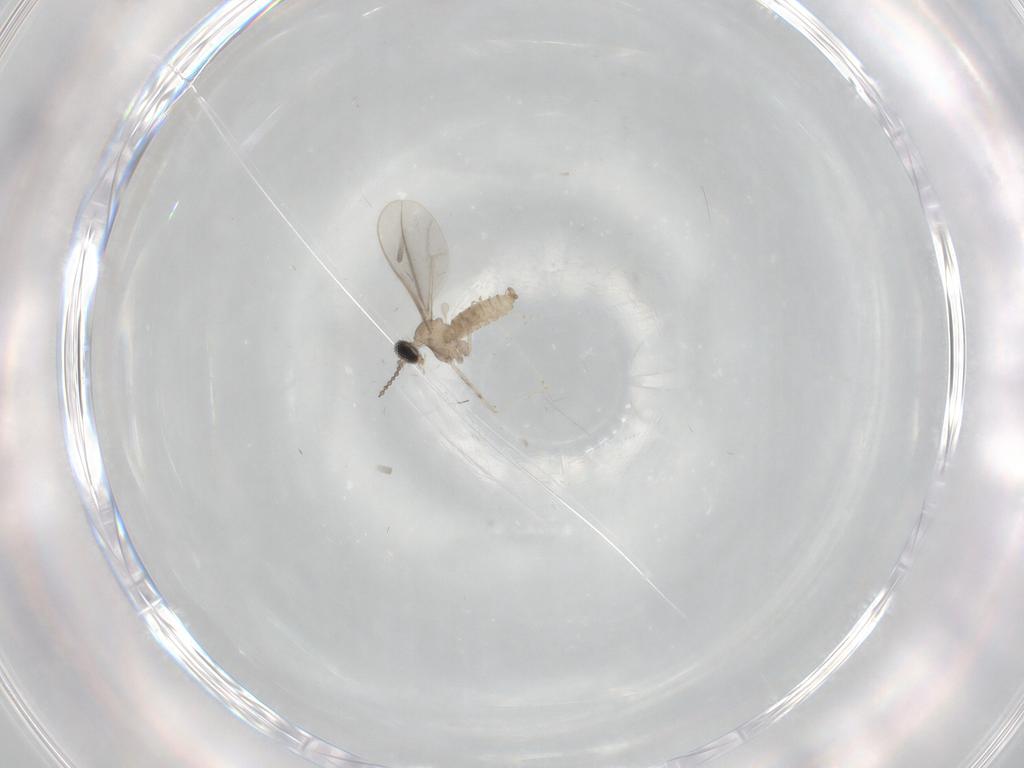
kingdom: Animalia
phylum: Arthropoda
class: Insecta
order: Diptera
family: Cecidomyiidae
